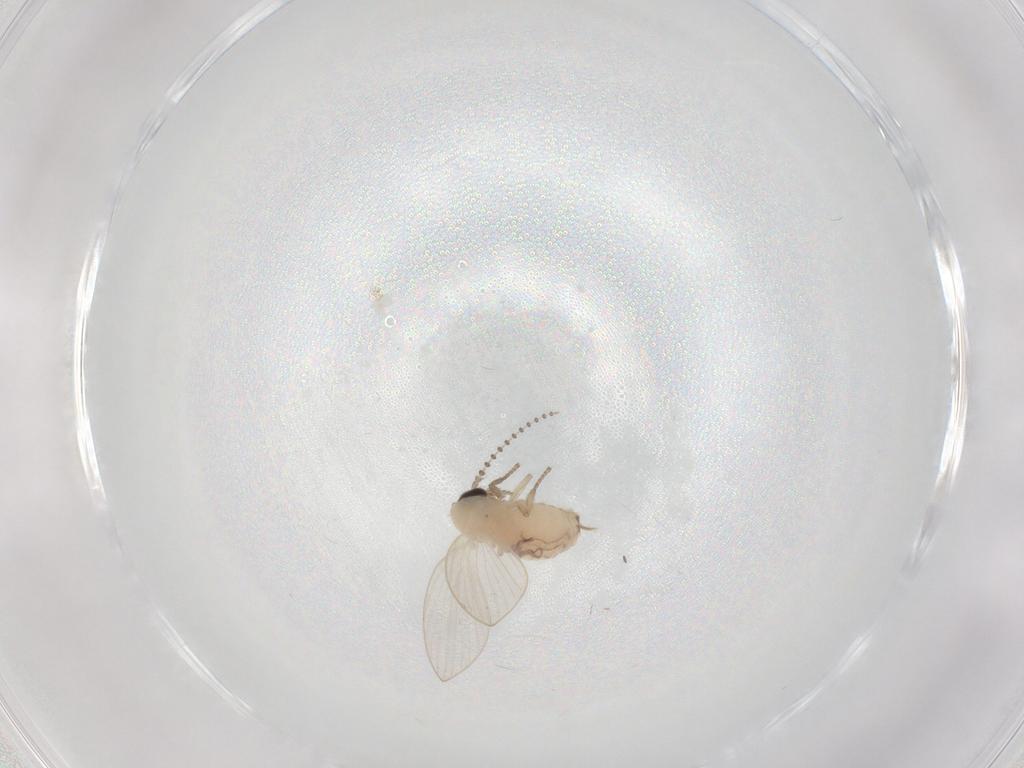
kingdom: Animalia
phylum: Arthropoda
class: Insecta
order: Diptera
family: Psychodidae
